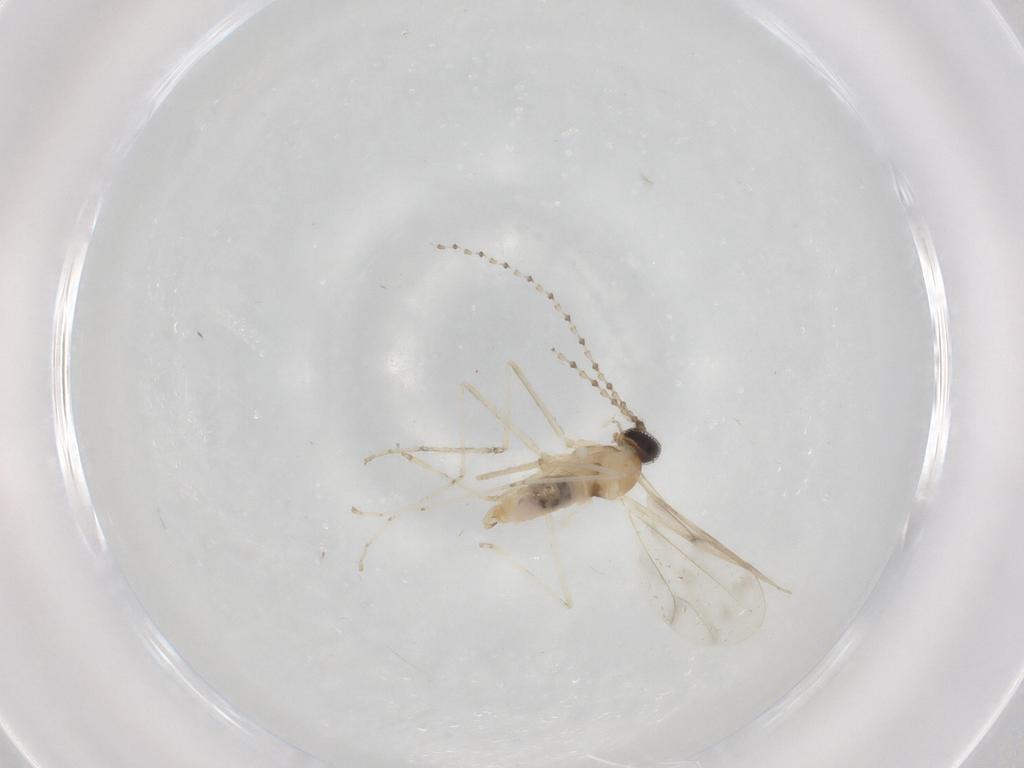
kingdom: Animalia
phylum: Arthropoda
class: Insecta
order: Diptera
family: Cecidomyiidae
